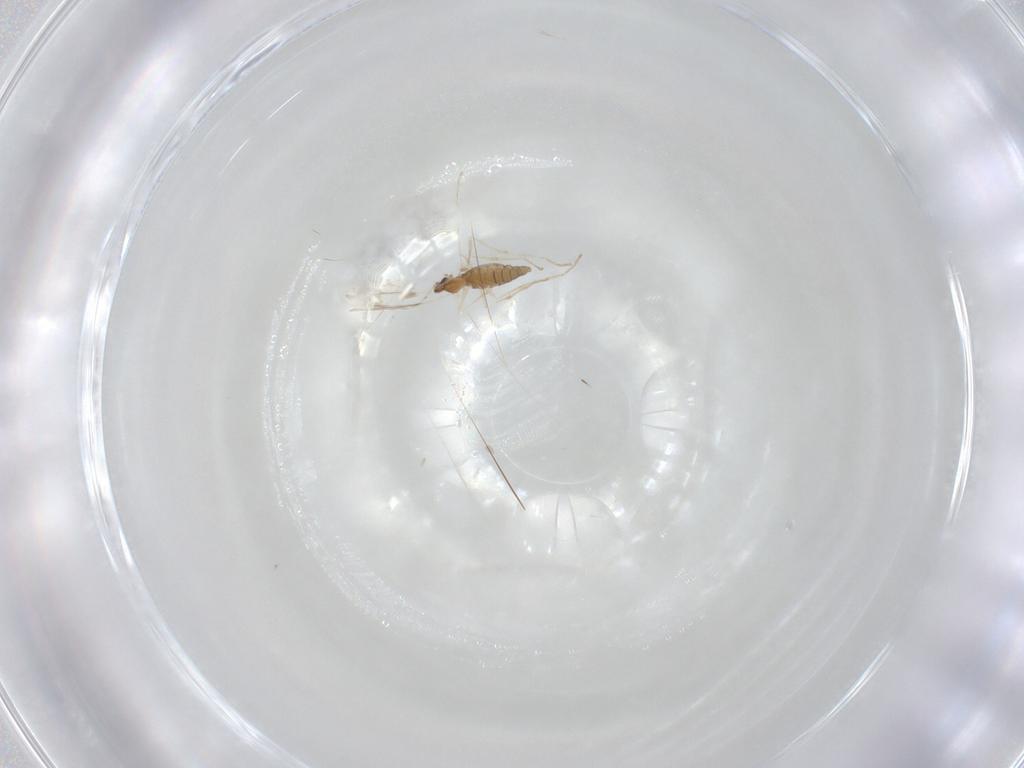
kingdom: Animalia
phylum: Arthropoda
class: Insecta
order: Diptera
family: Cecidomyiidae
